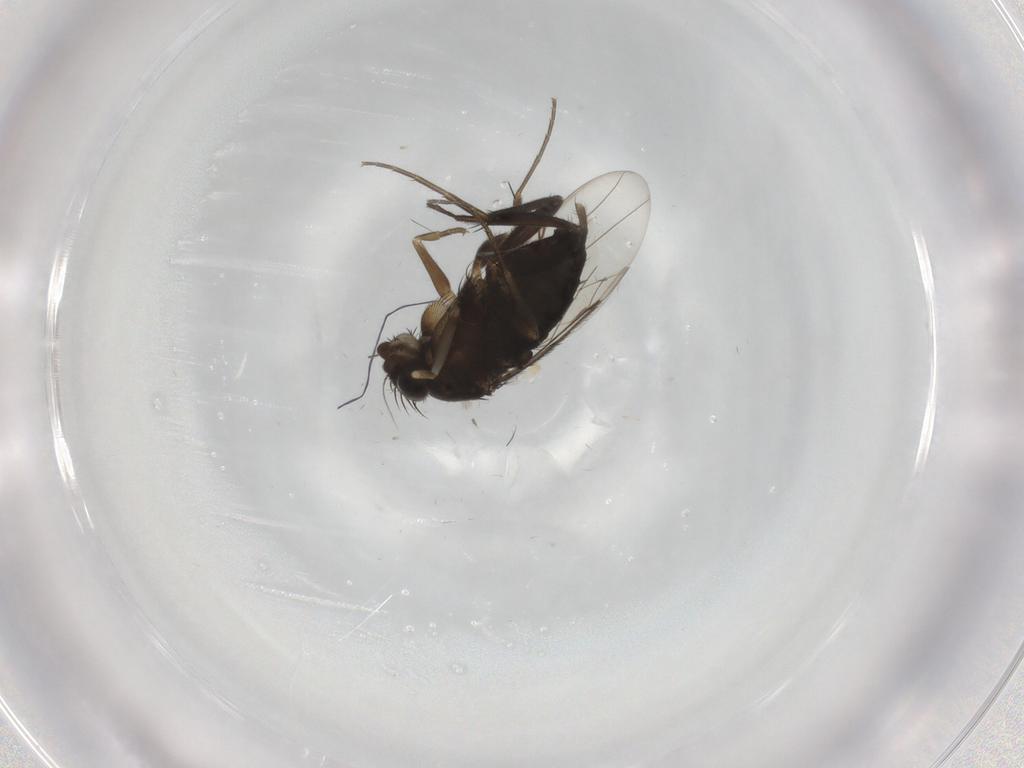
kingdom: Animalia
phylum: Arthropoda
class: Insecta
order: Diptera
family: Phoridae
